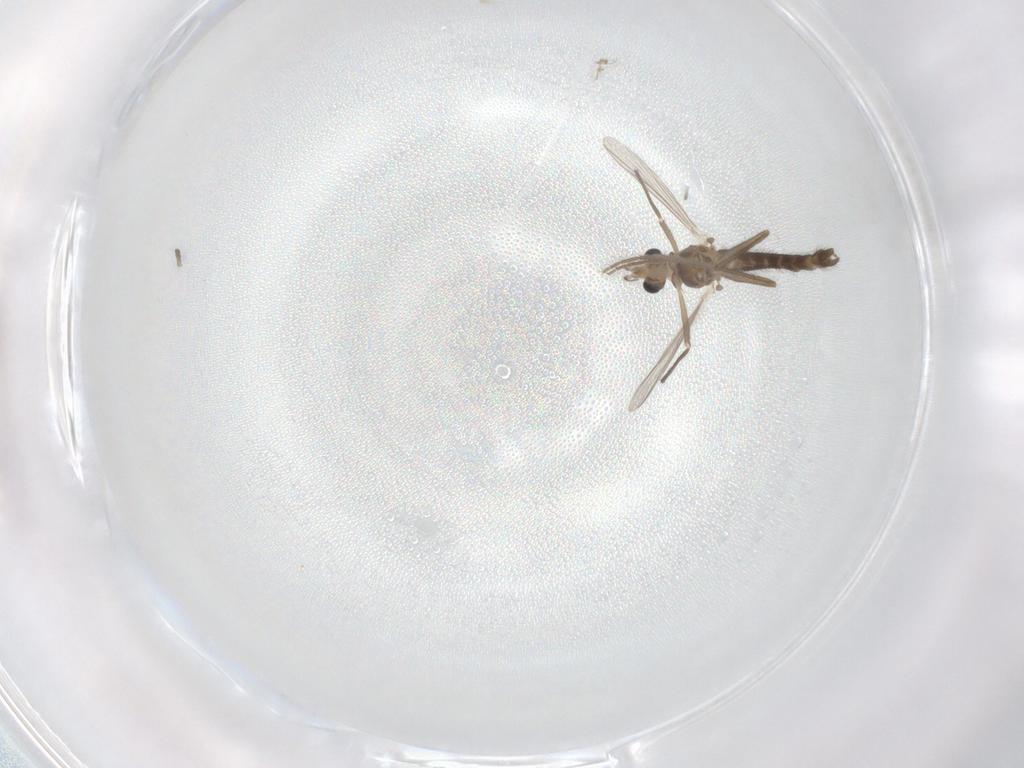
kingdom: Animalia
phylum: Arthropoda
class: Insecta
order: Diptera
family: Chironomidae
